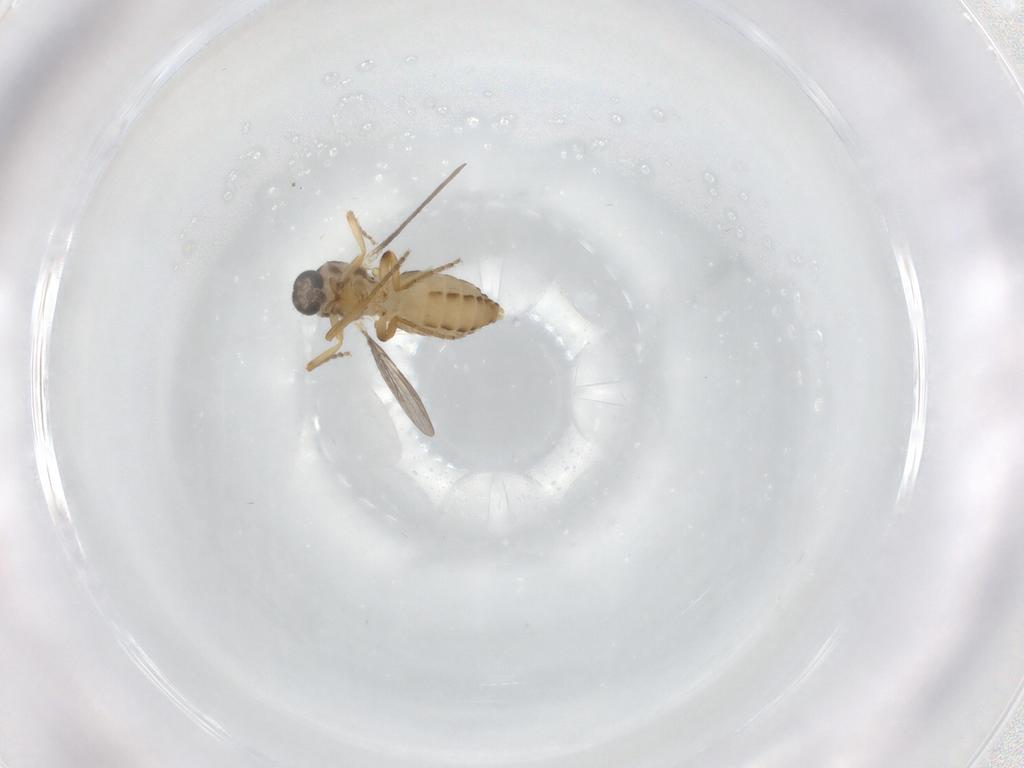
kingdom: Animalia
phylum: Arthropoda
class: Insecta
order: Diptera
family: Ceratopogonidae
